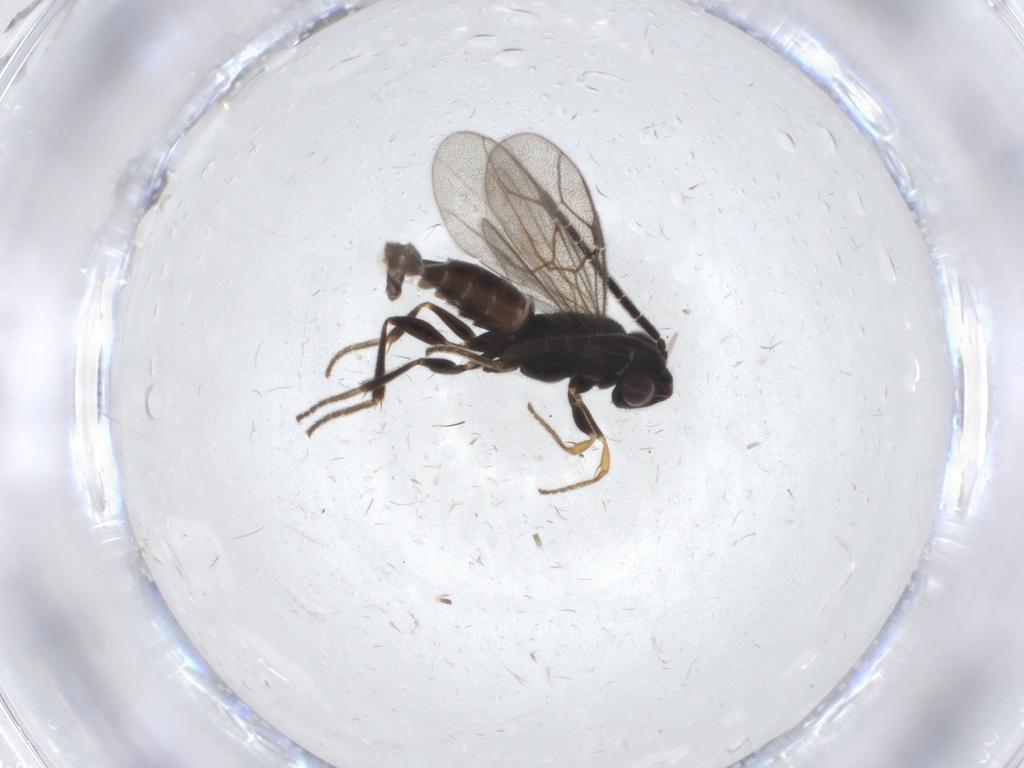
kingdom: Animalia
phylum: Arthropoda
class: Insecta
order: Hymenoptera
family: Dryinidae
